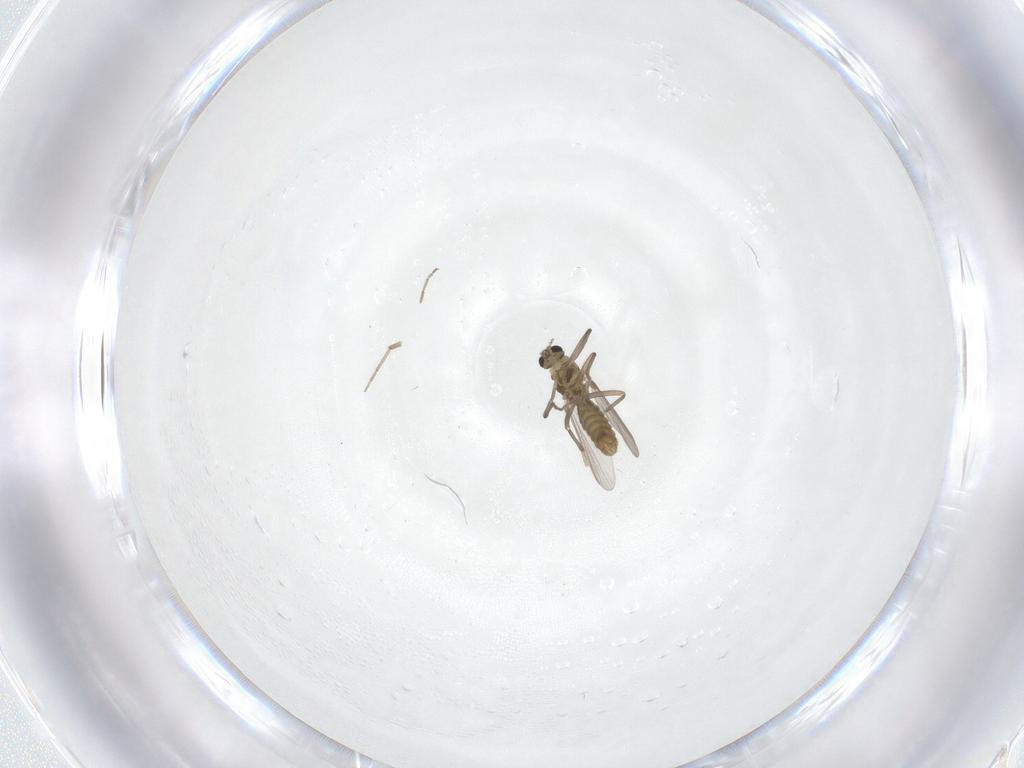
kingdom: Animalia
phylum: Arthropoda
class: Insecta
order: Diptera
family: Chironomidae
